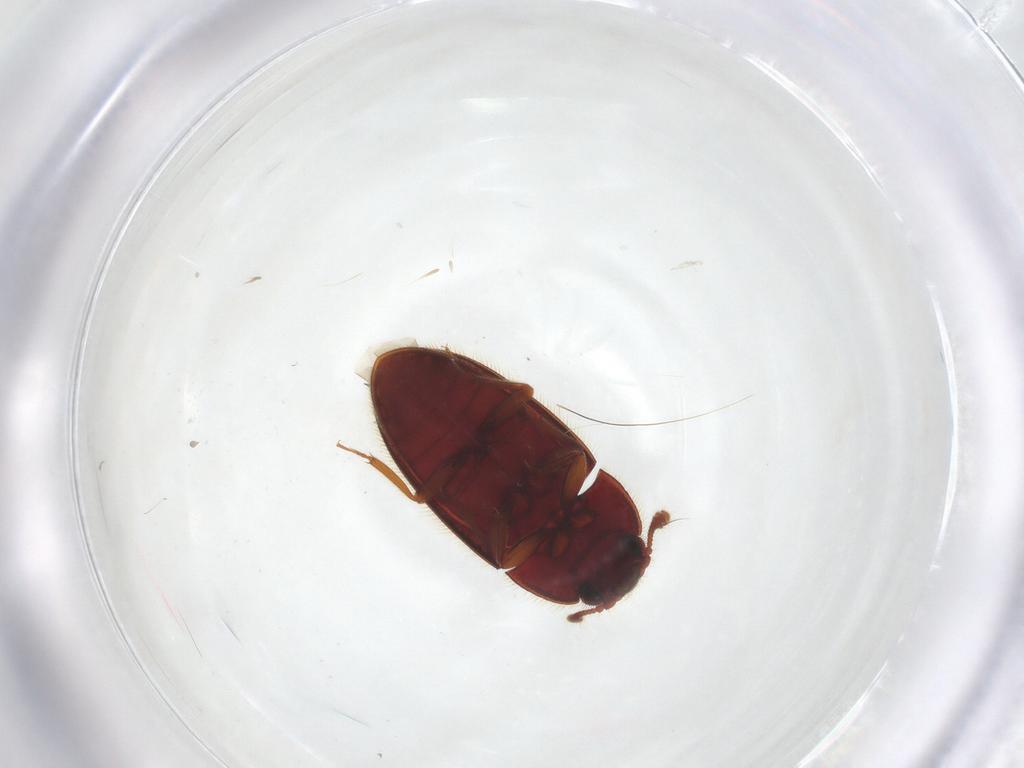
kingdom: Animalia
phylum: Arthropoda
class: Insecta
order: Coleoptera
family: Biphyllidae
